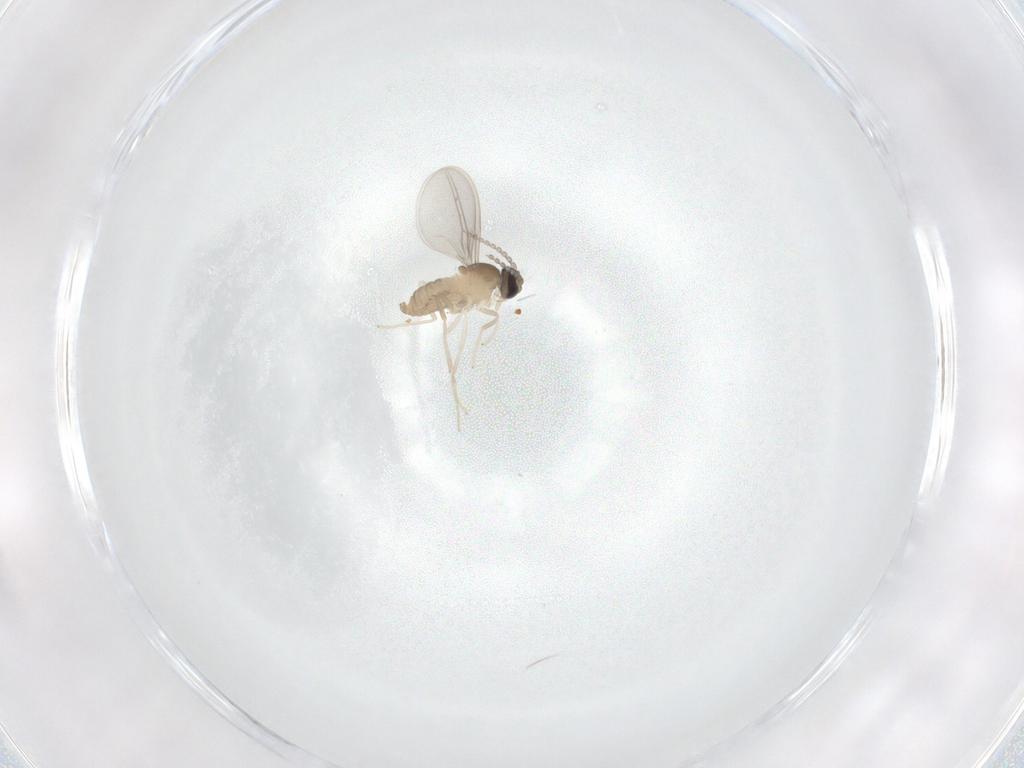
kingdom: Animalia
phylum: Arthropoda
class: Insecta
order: Diptera
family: Cecidomyiidae
